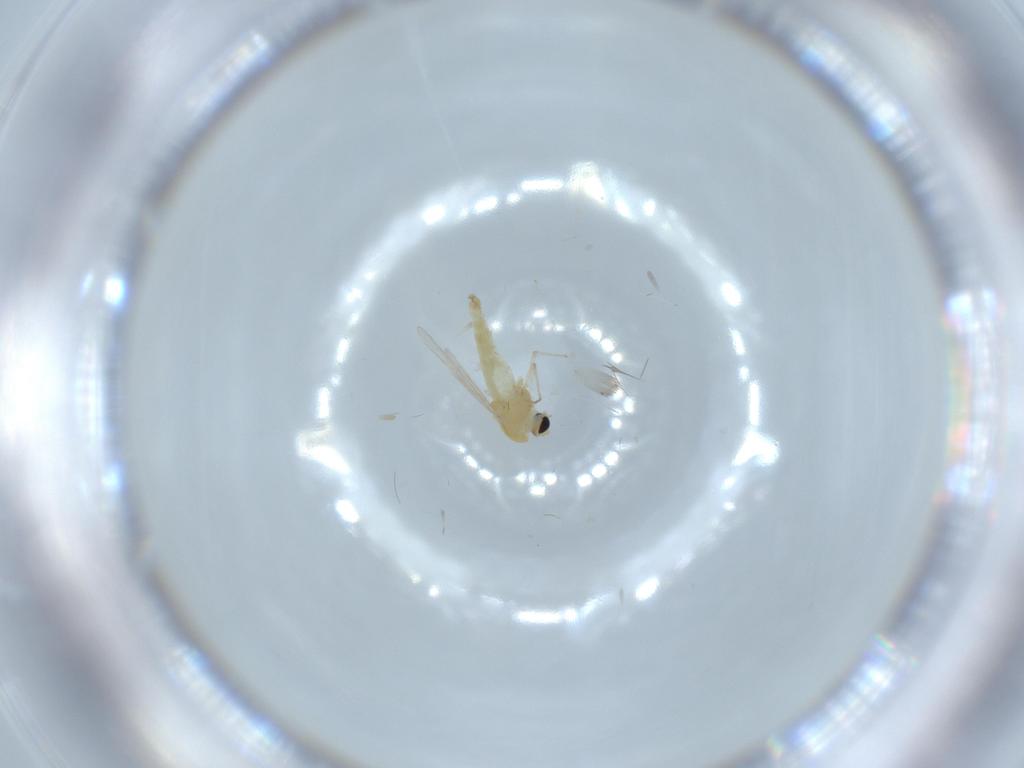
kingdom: Animalia
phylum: Arthropoda
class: Insecta
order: Diptera
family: Chironomidae
